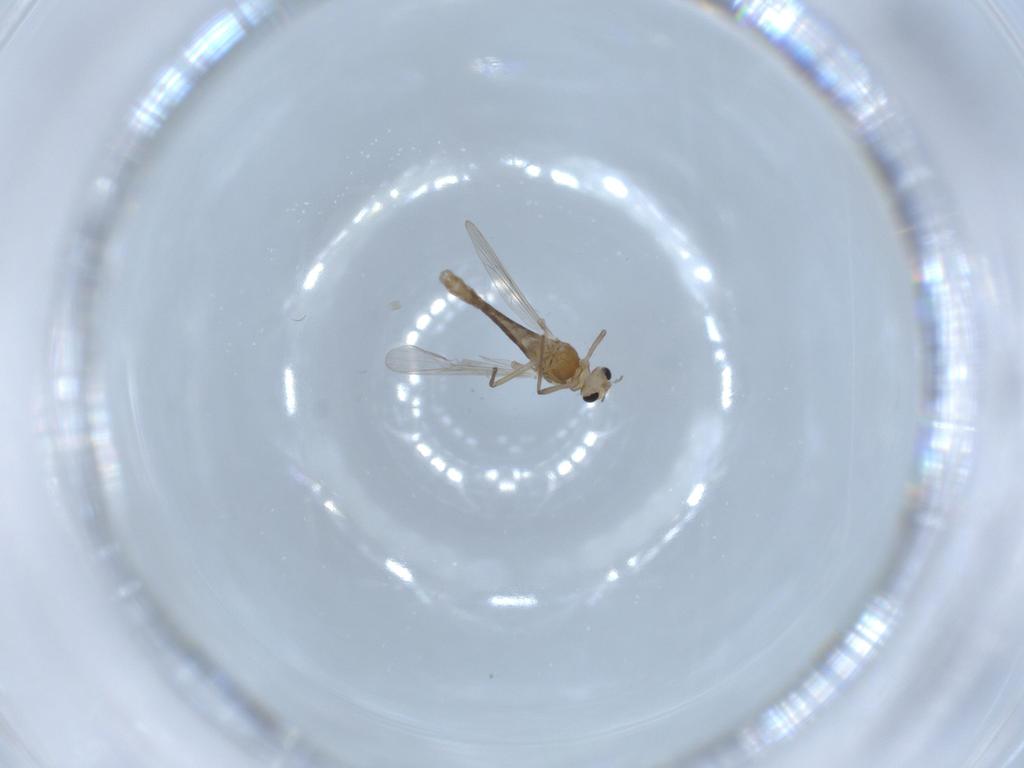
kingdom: Animalia
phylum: Arthropoda
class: Insecta
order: Diptera
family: Chironomidae
